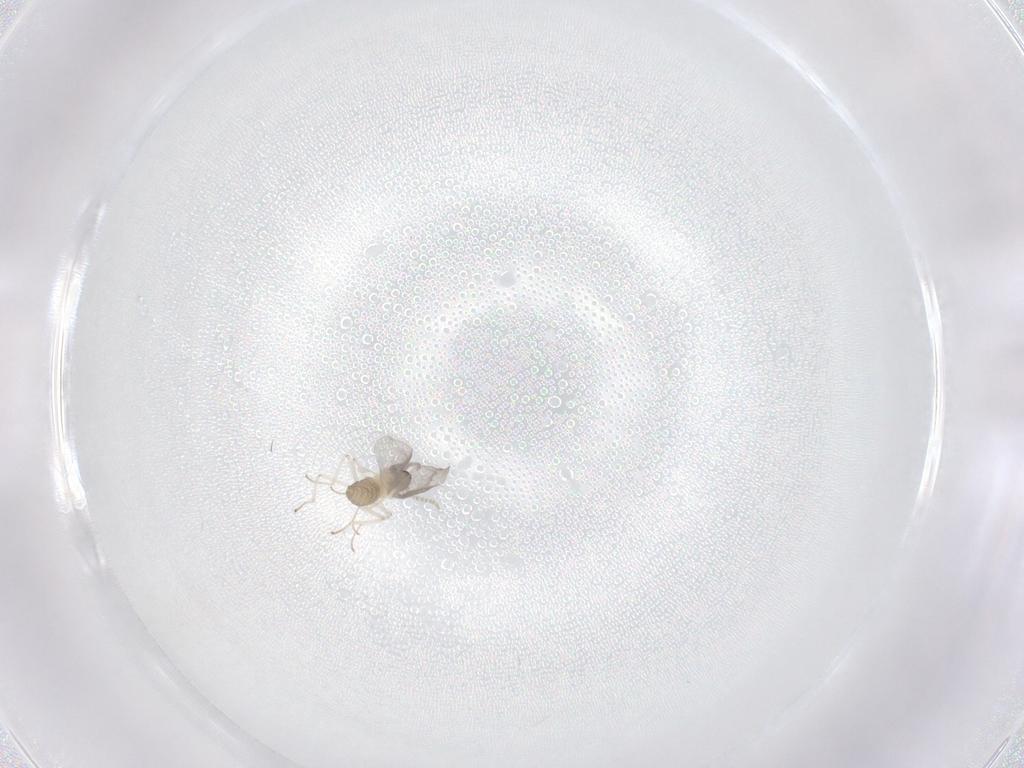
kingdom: Animalia
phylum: Arthropoda
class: Insecta
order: Diptera
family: Cecidomyiidae
